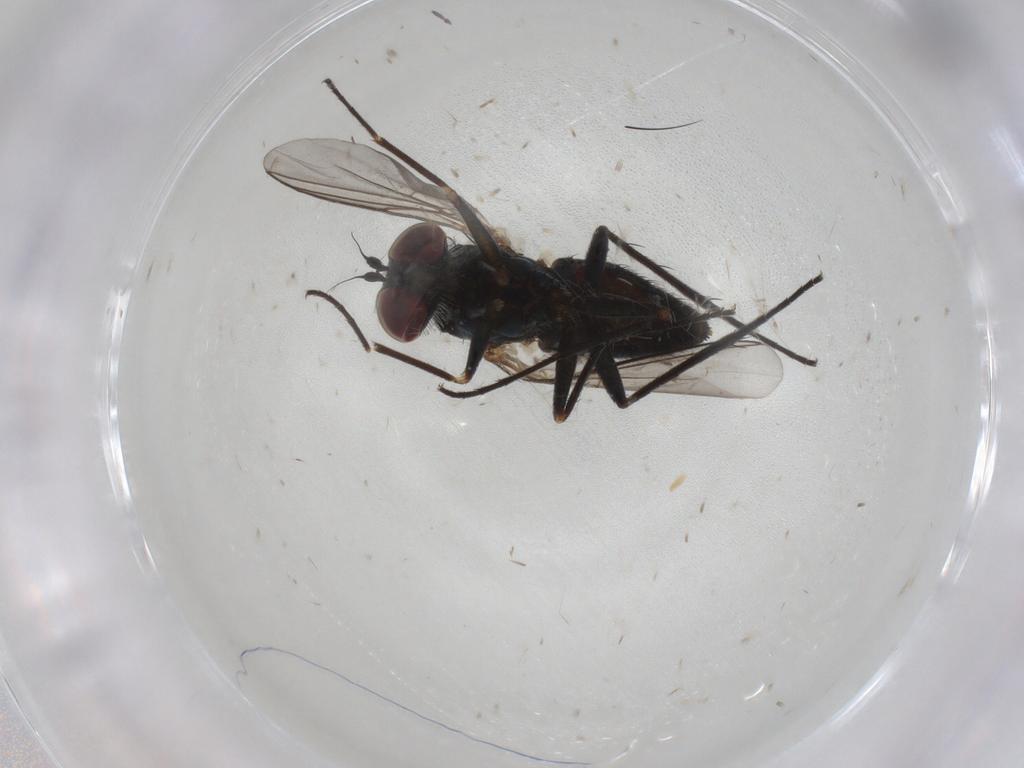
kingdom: Animalia
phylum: Arthropoda
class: Insecta
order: Diptera
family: Dolichopodidae
